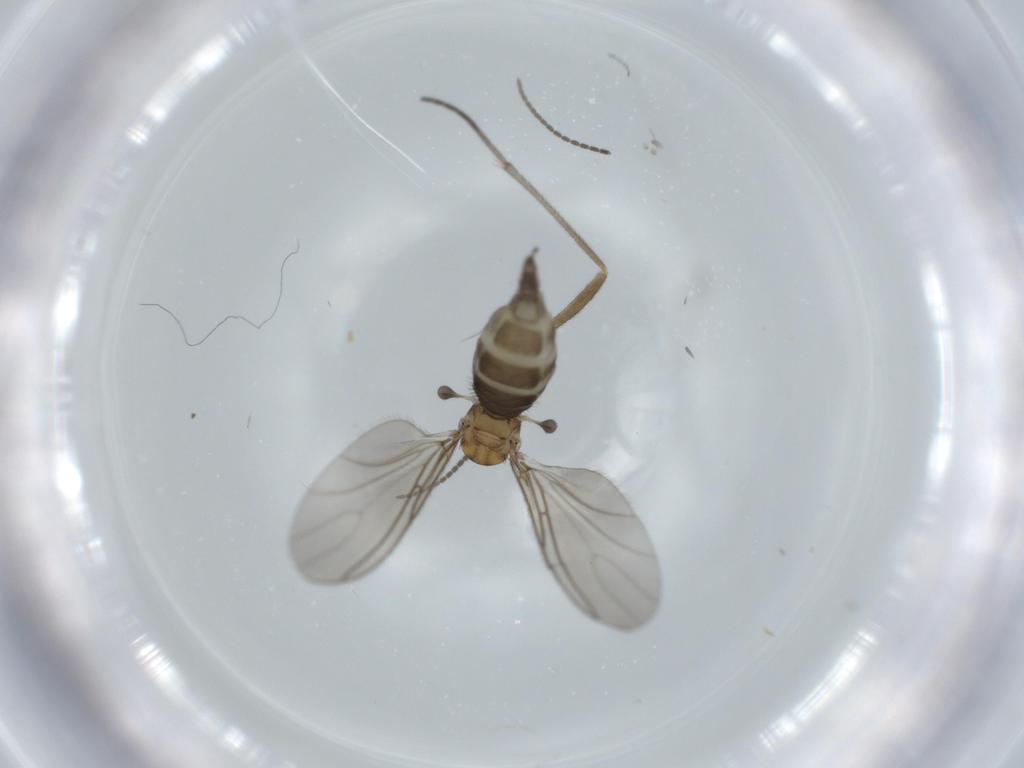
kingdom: Animalia
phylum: Arthropoda
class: Insecta
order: Diptera
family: Sciaridae
